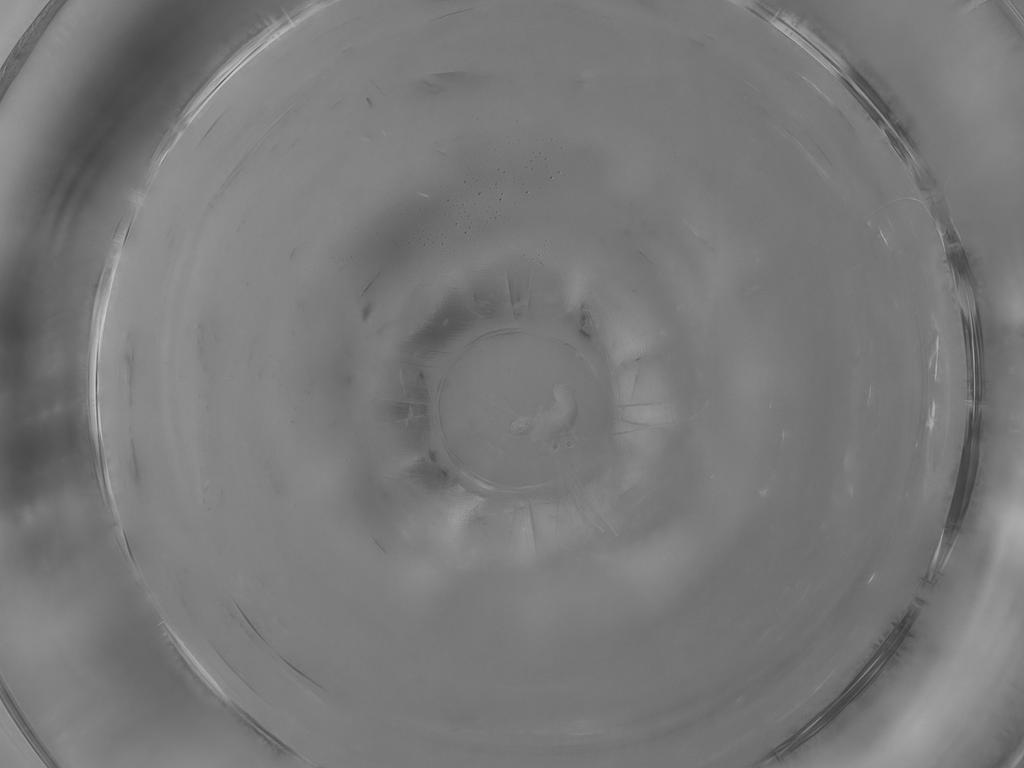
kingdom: Animalia
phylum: Arthropoda
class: Insecta
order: Diptera
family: Cecidomyiidae
